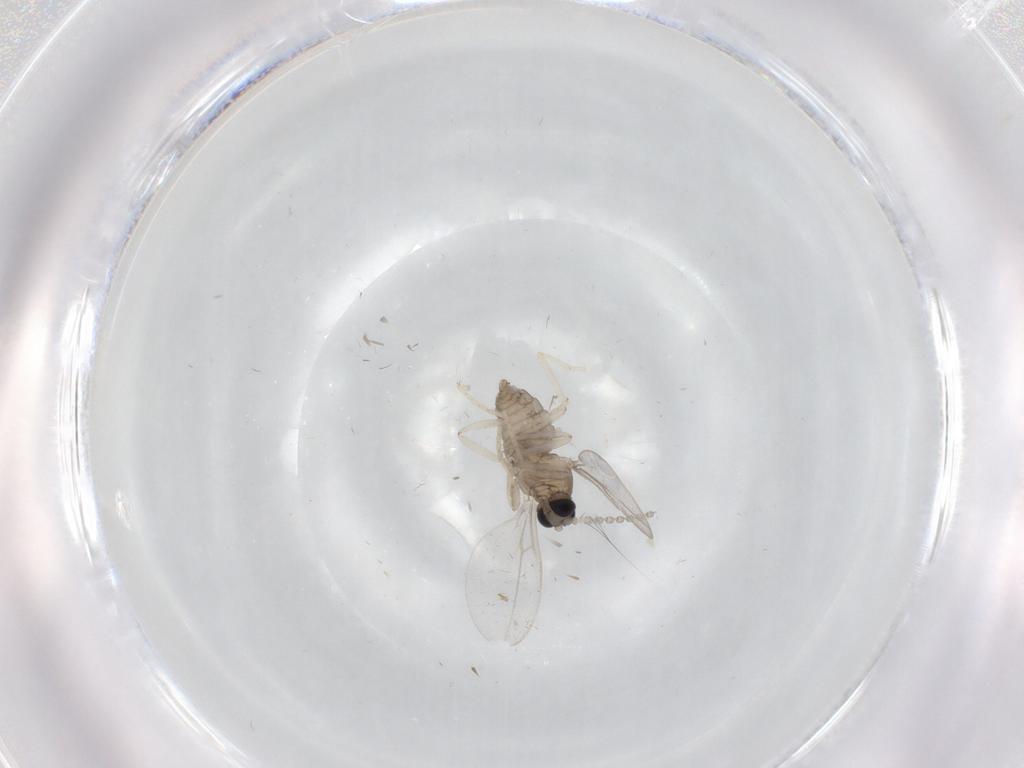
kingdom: Animalia
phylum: Arthropoda
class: Insecta
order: Diptera
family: Cecidomyiidae
